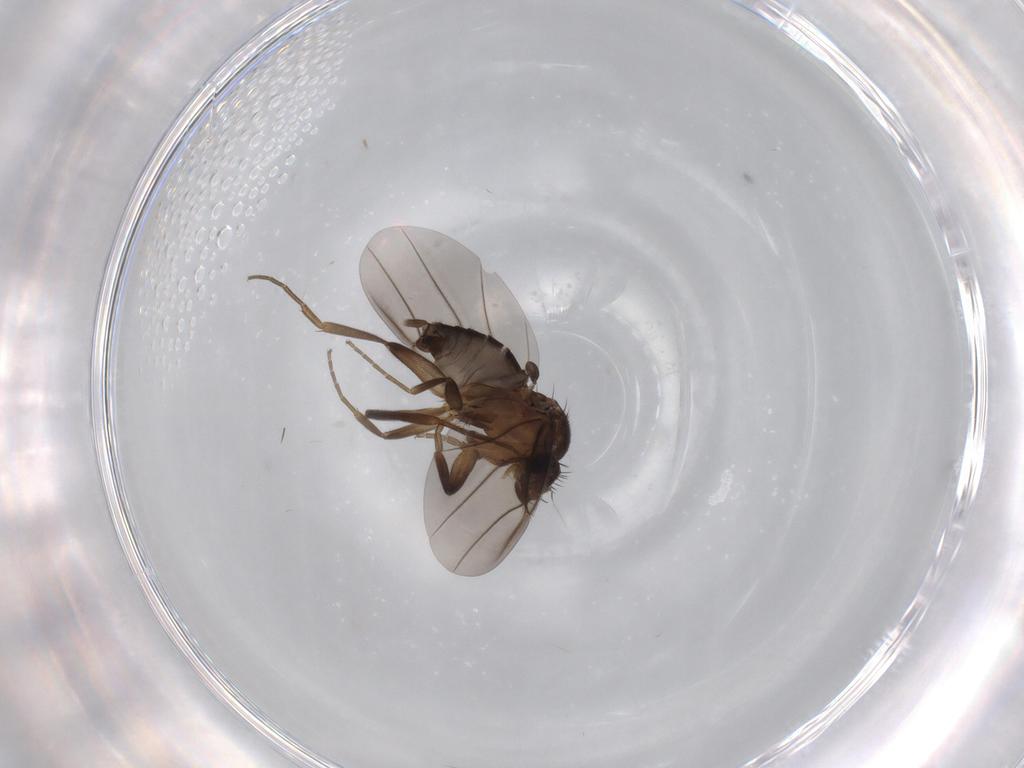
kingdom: Animalia
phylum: Arthropoda
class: Insecta
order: Diptera
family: Phoridae
